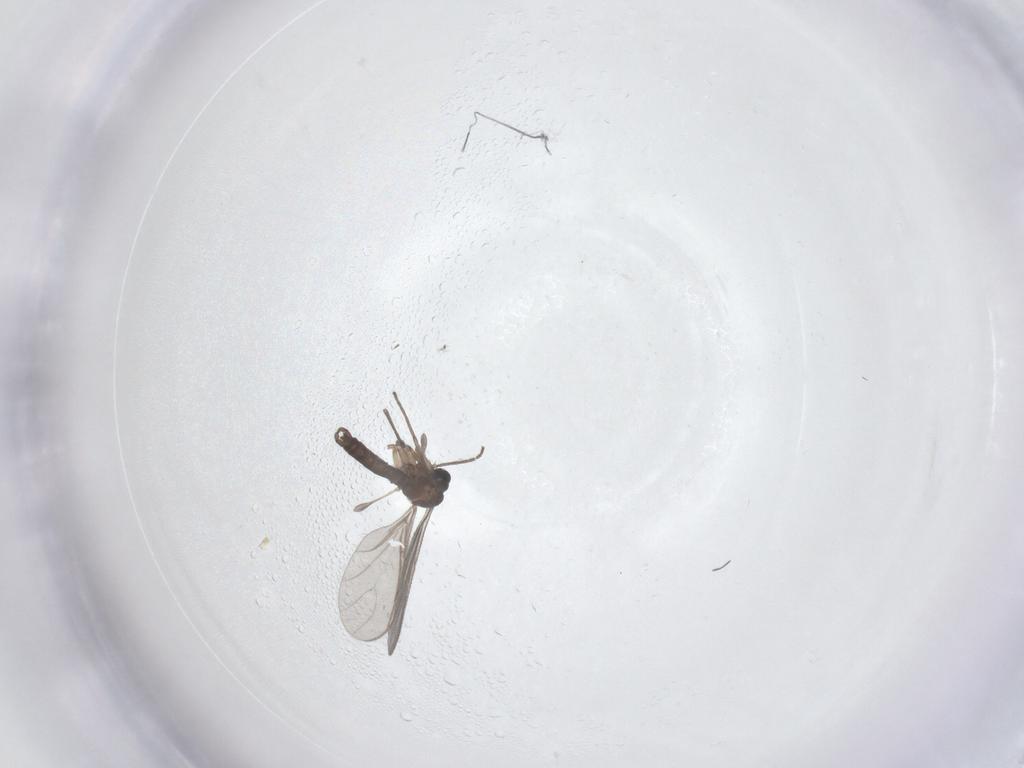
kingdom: Animalia
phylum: Arthropoda
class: Insecta
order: Diptera
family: Sciaridae
